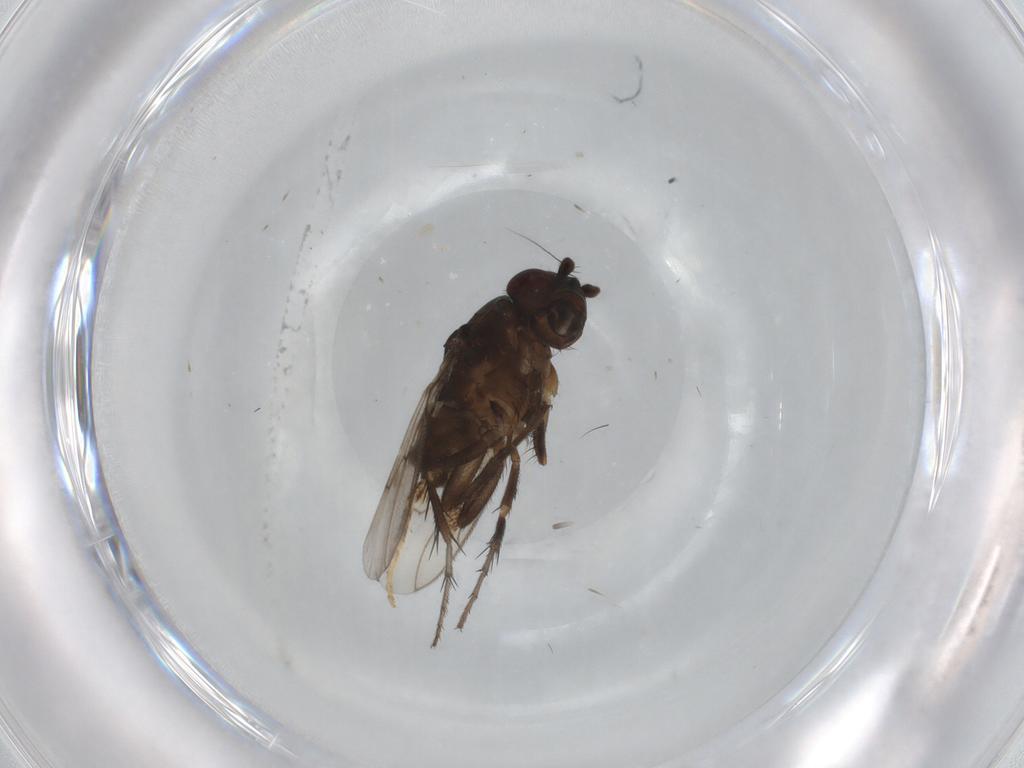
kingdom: Animalia
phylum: Arthropoda
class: Insecta
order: Diptera
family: Sphaeroceridae
